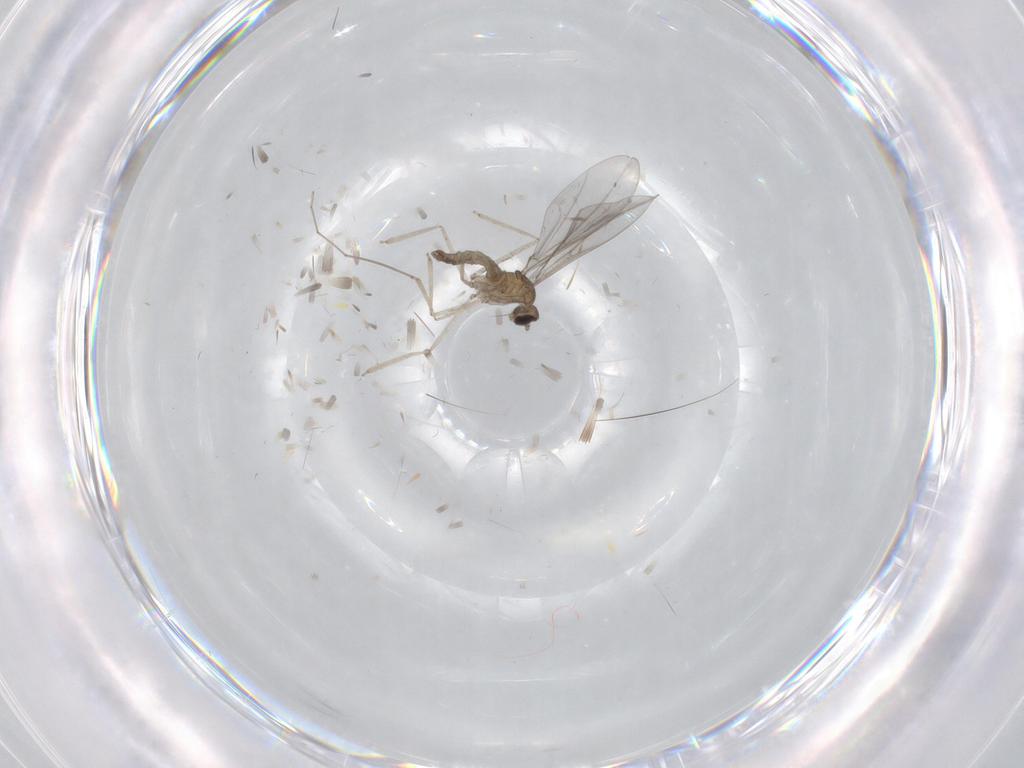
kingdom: Animalia
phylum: Arthropoda
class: Insecta
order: Diptera
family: Cecidomyiidae
